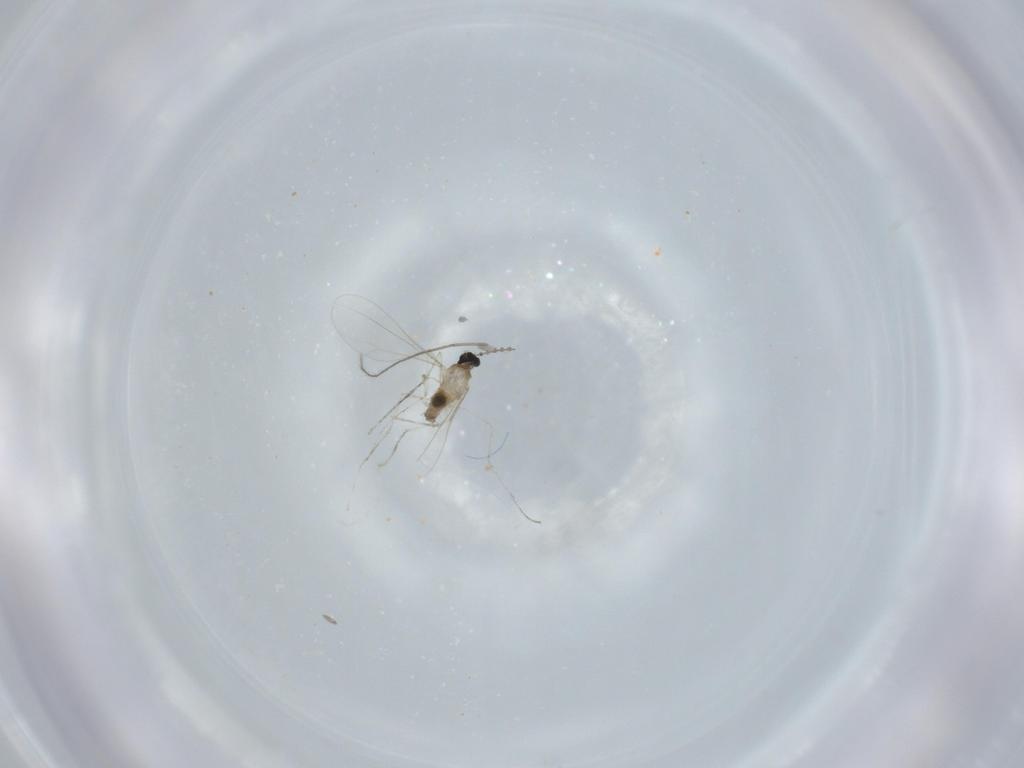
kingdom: Animalia
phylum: Arthropoda
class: Insecta
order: Diptera
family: Cecidomyiidae
